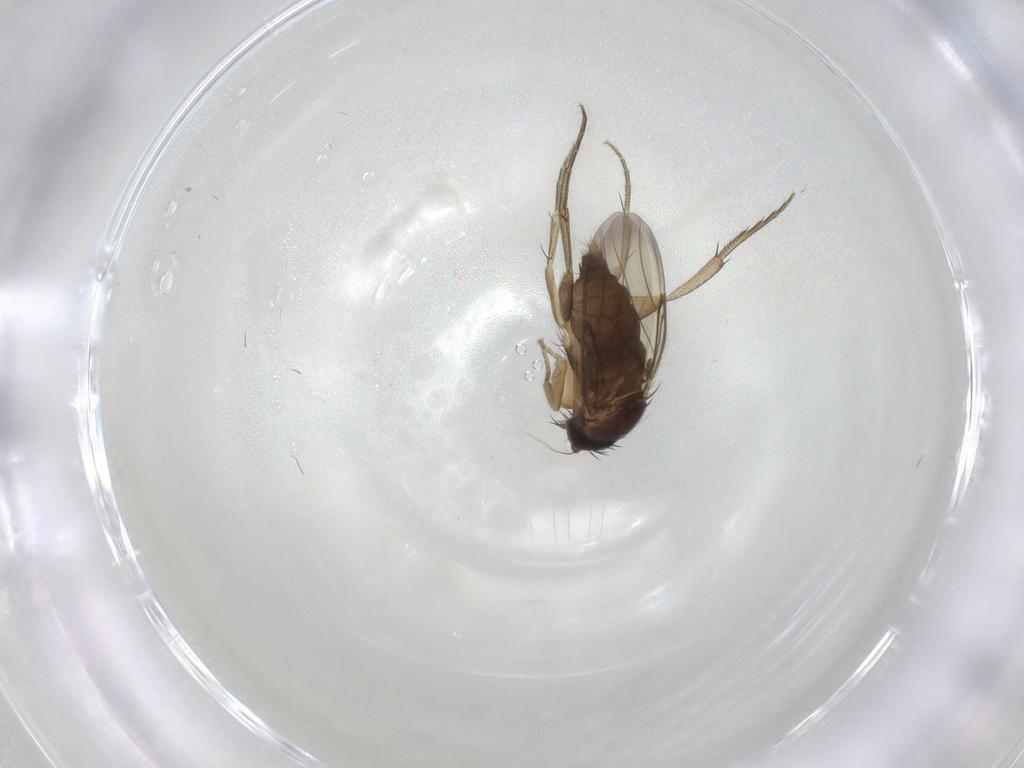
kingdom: Animalia
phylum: Arthropoda
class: Insecta
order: Diptera
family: Phoridae
